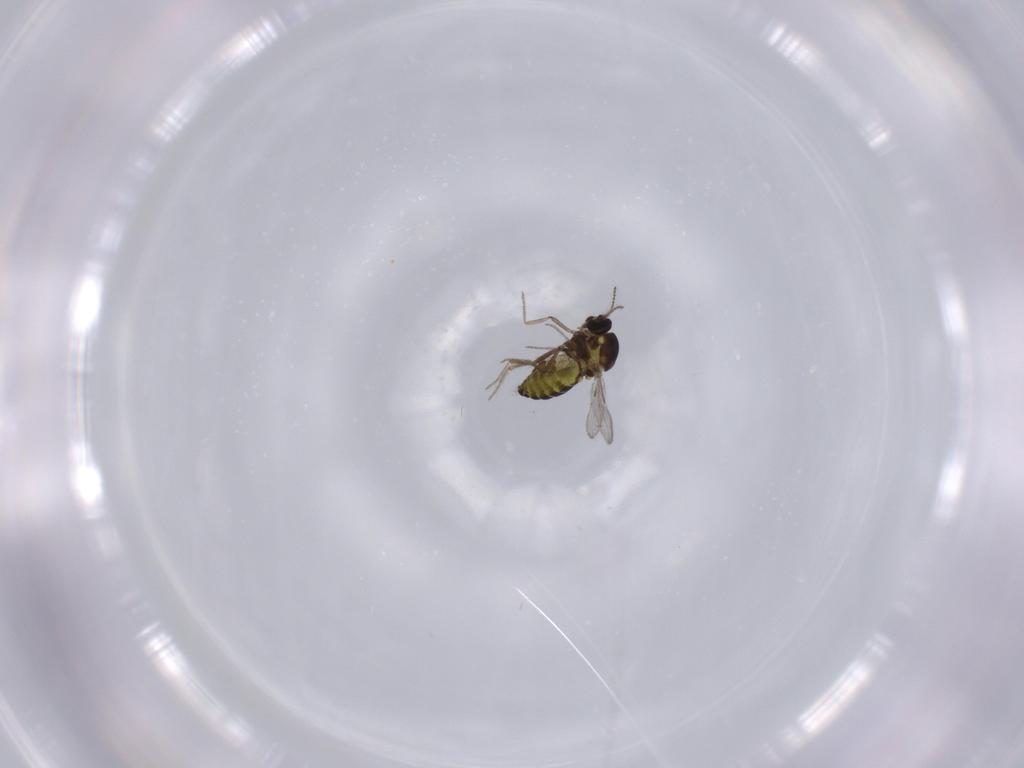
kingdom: Animalia
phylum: Arthropoda
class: Insecta
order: Diptera
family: Ceratopogonidae
